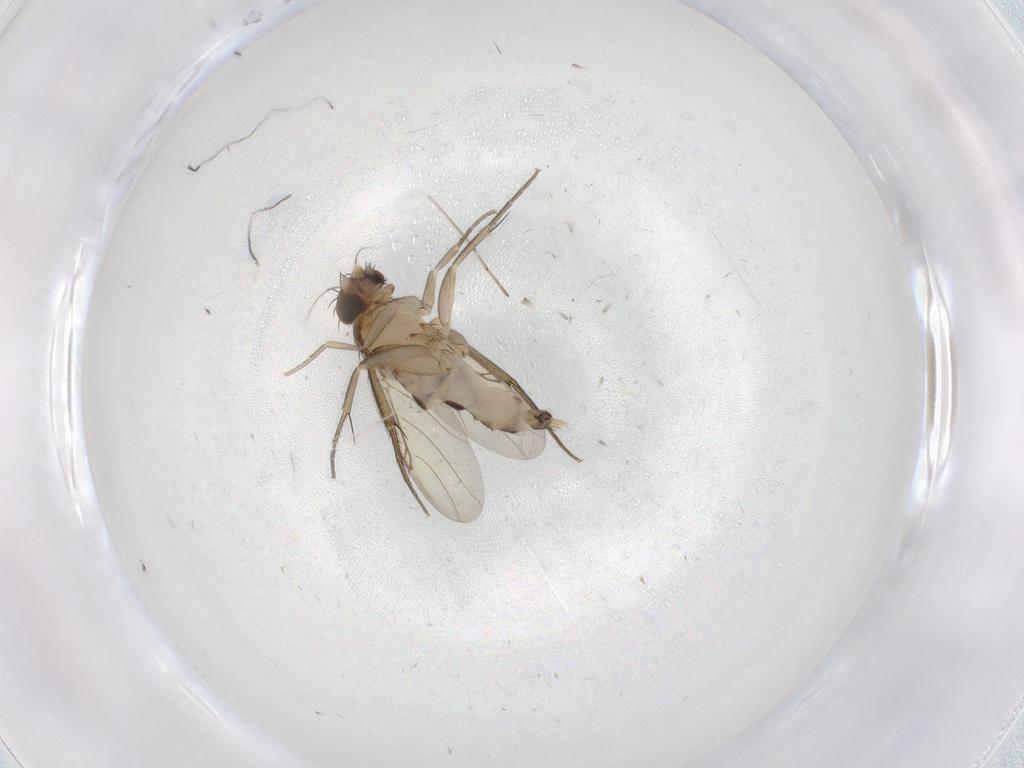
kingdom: Animalia
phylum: Arthropoda
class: Insecta
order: Diptera
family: Phoridae
